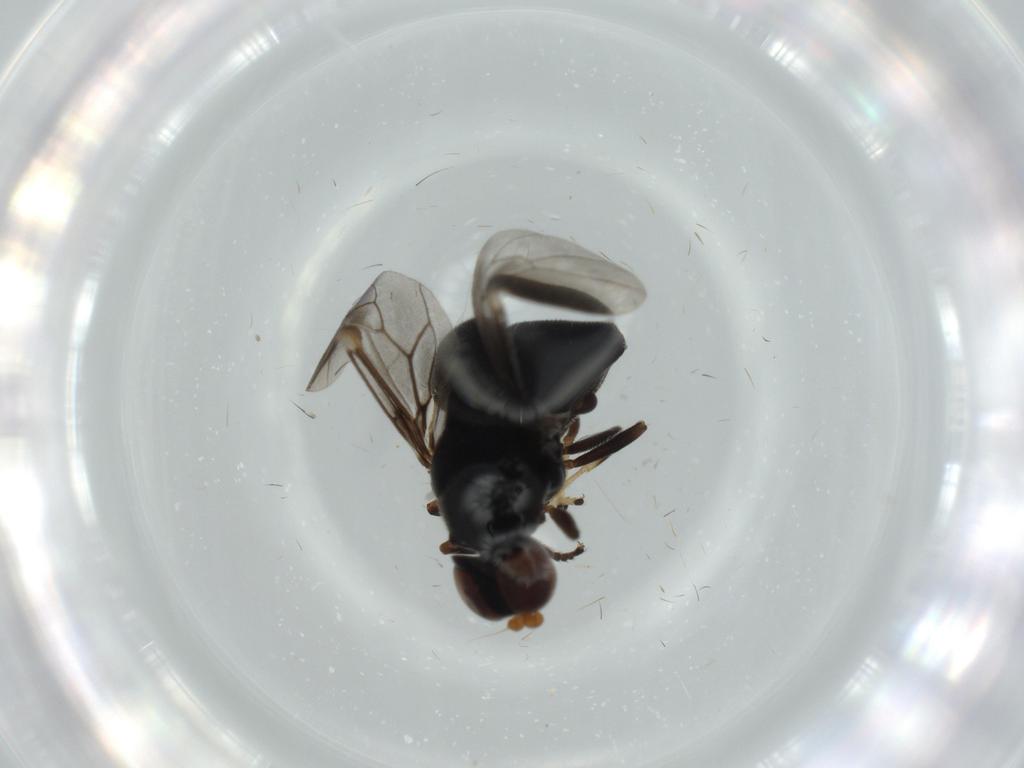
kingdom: Animalia
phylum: Arthropoda
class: Insecta
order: Diptera
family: Stratiomyidae
